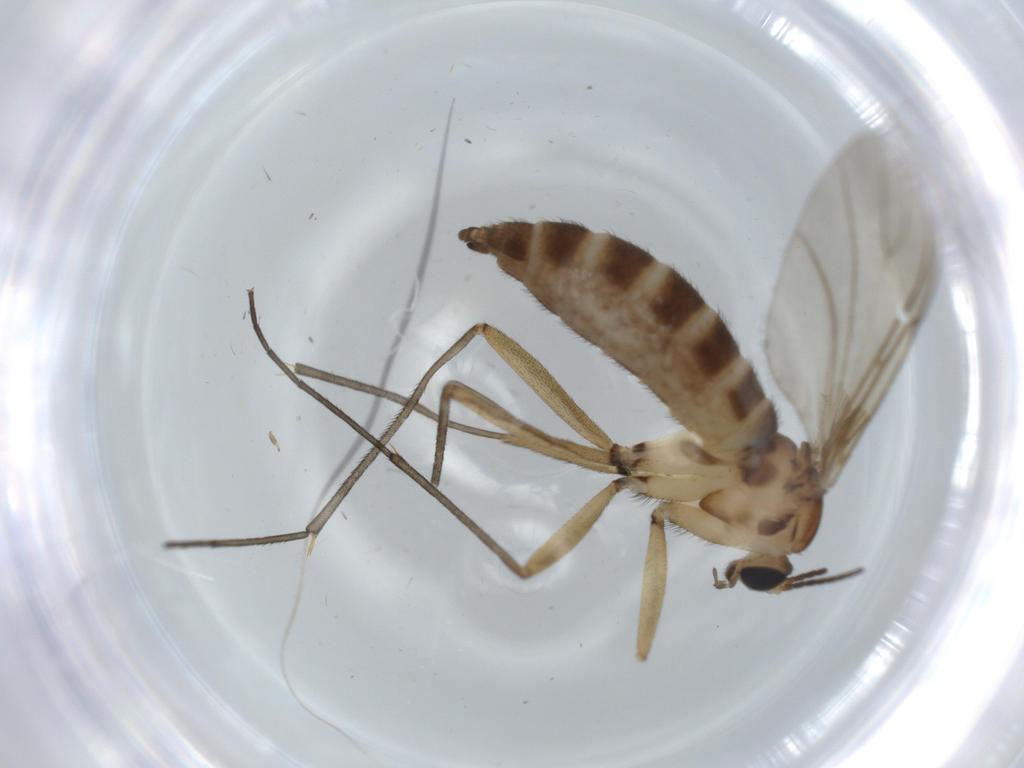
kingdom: Animalia
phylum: Arthropoda
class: Insecta
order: Diptera
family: Sciaridae
